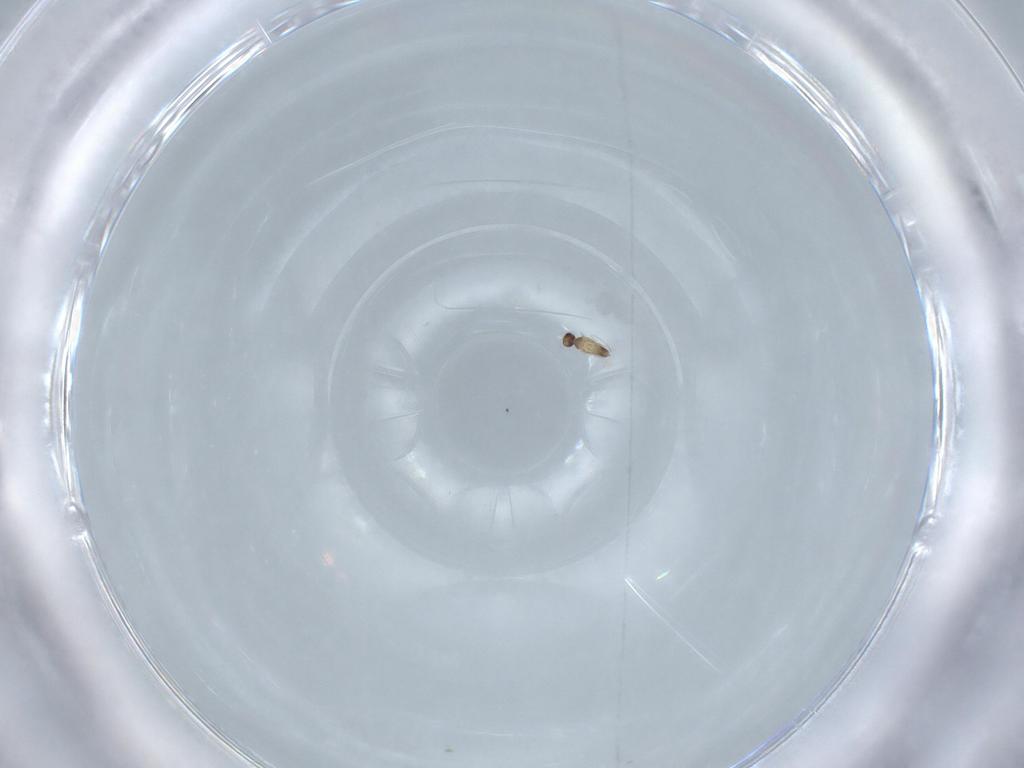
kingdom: Animalia
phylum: Arthropoda
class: Insecta
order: Hymenoptera
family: Mymaridae
